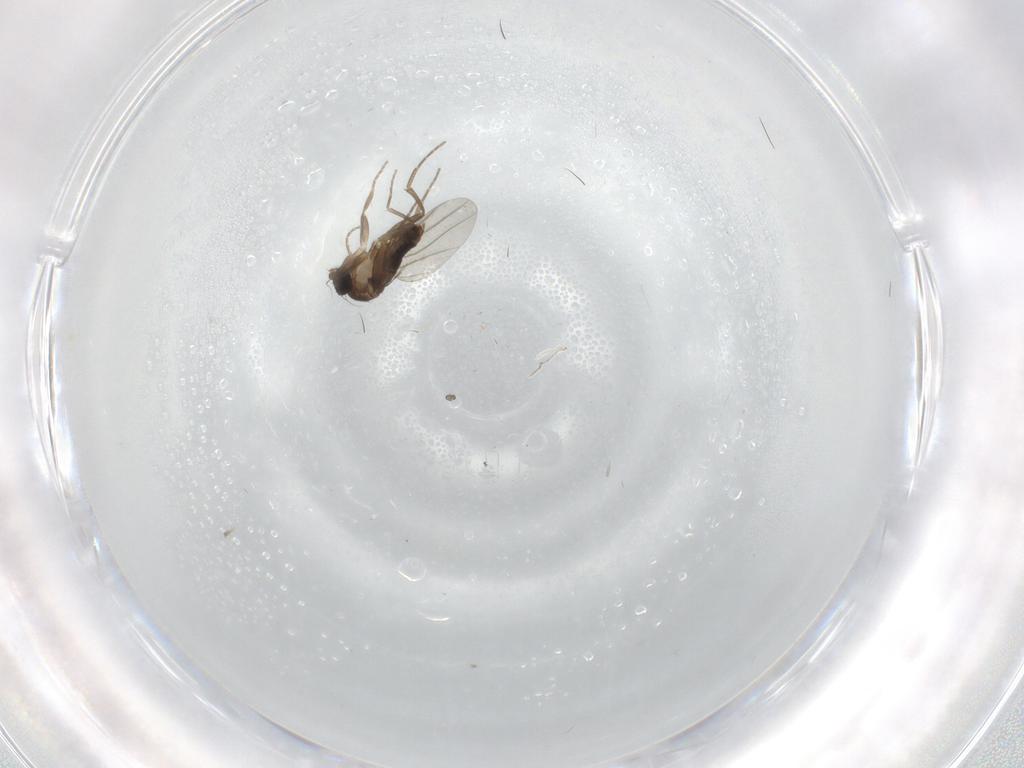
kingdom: Animalia
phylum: Arthropoda
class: Insecta
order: Diptera
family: Phoridae
